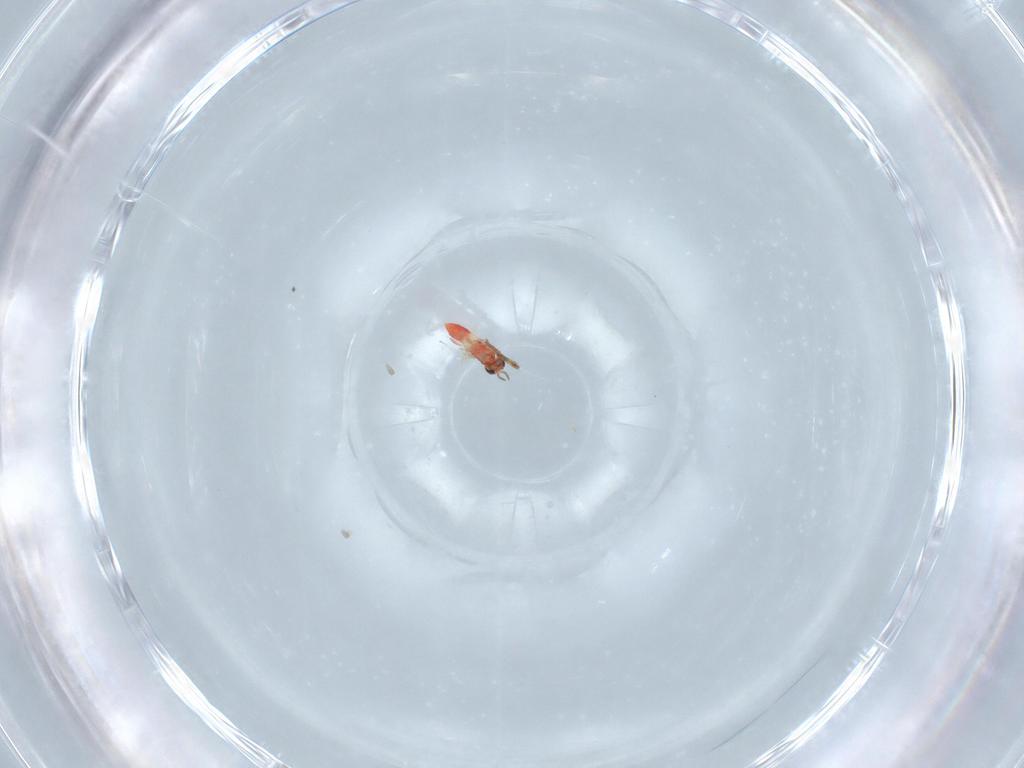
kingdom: Animalia
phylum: Arthropoda
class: Insecta
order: Hymenoptera
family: Trichogrammatidae
